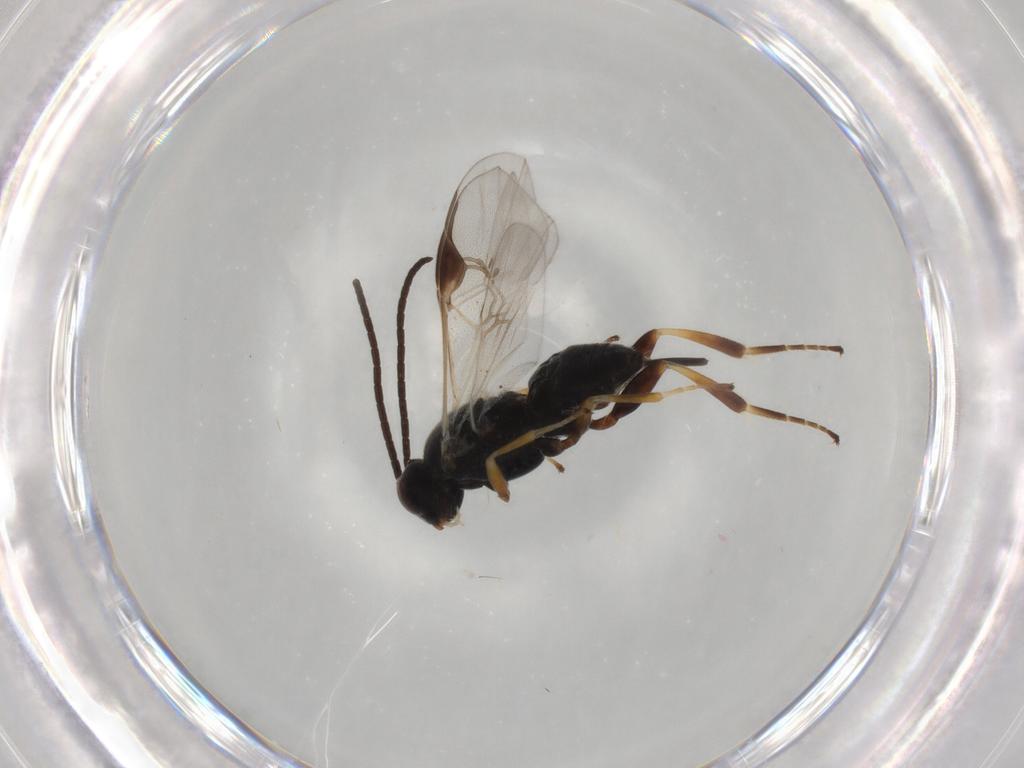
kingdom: Animalia
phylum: Arthropoda
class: Insecta
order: Hymenoptera
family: Braconidae
